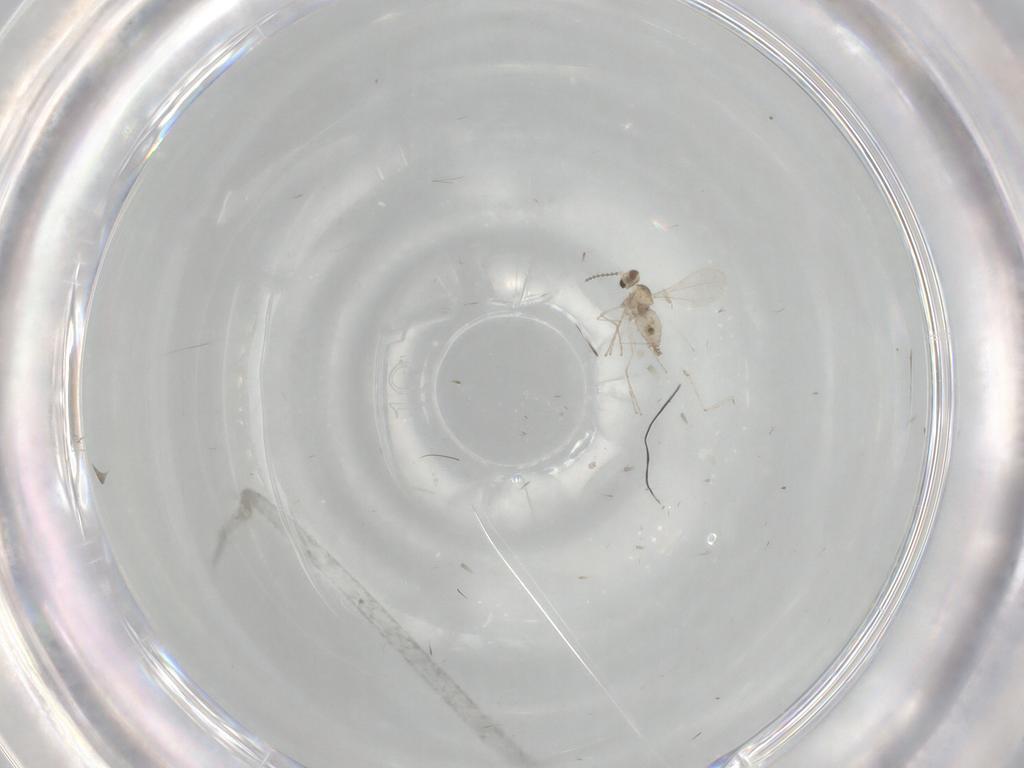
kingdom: Animalia
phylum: Arthropoda
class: Insecta
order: Diptera
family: Cecidomyiidae
